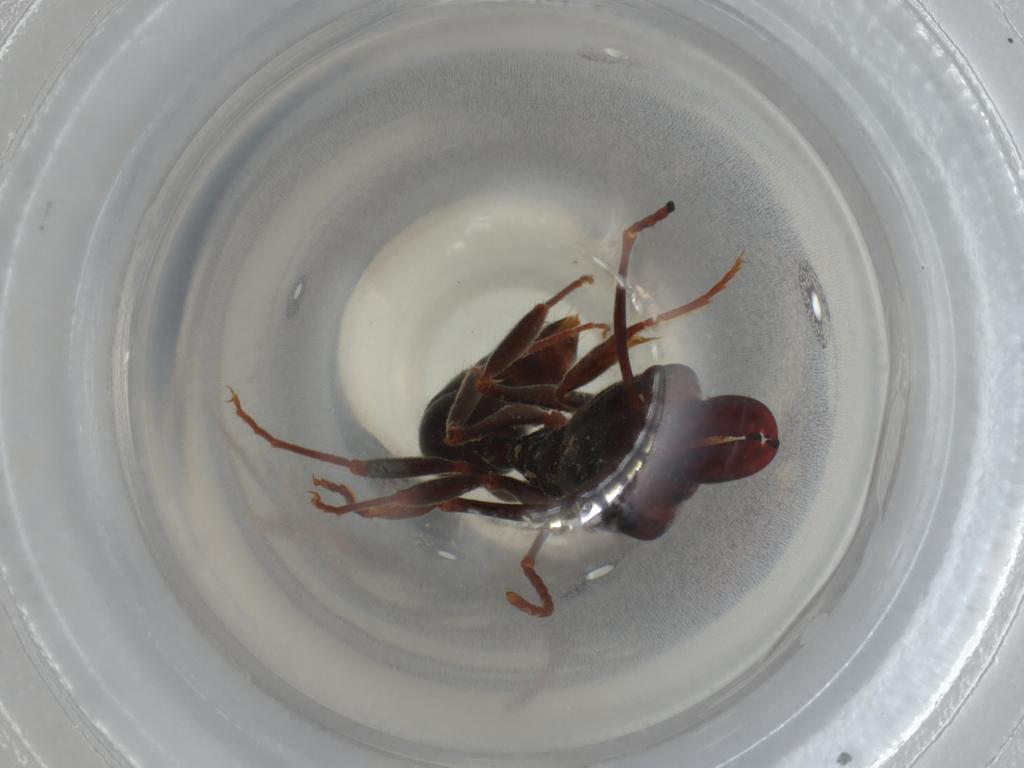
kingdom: Animalia
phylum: Arthropoda
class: Insecta
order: Hymenoptera
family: Formicidae
